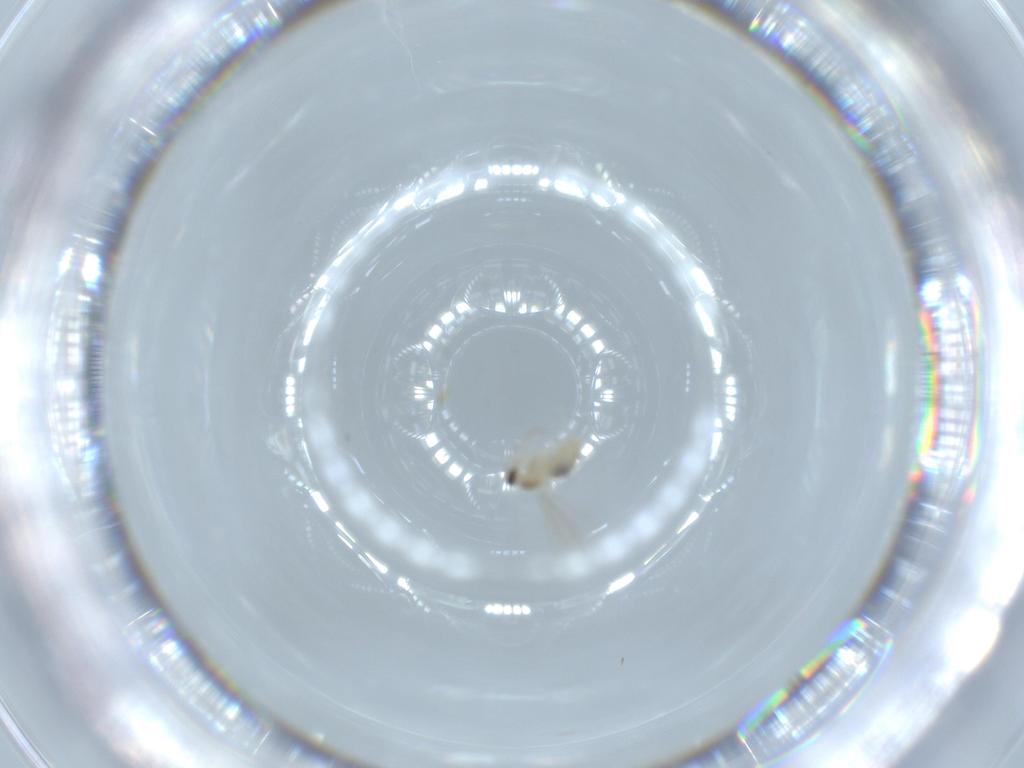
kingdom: Animalia
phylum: Arthropoda
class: Insecta
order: Diptera
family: Cecidomyiidae
